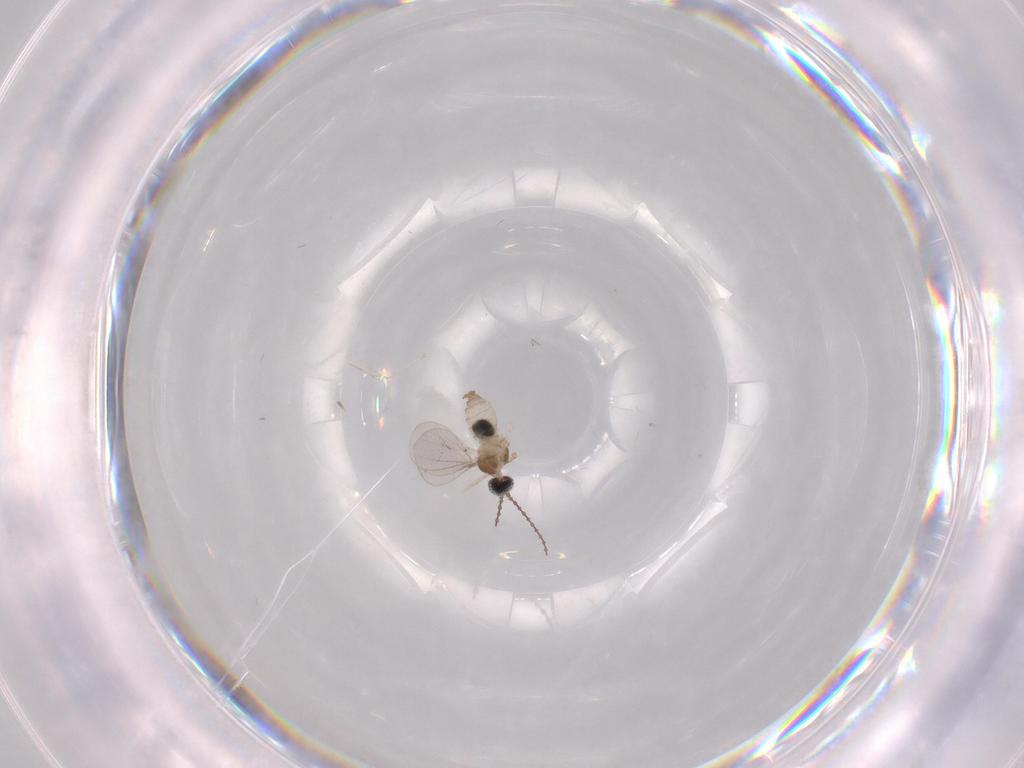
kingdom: Animalia
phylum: Arthropoda
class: Insecta
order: Diptera
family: Cecidomyiidae
